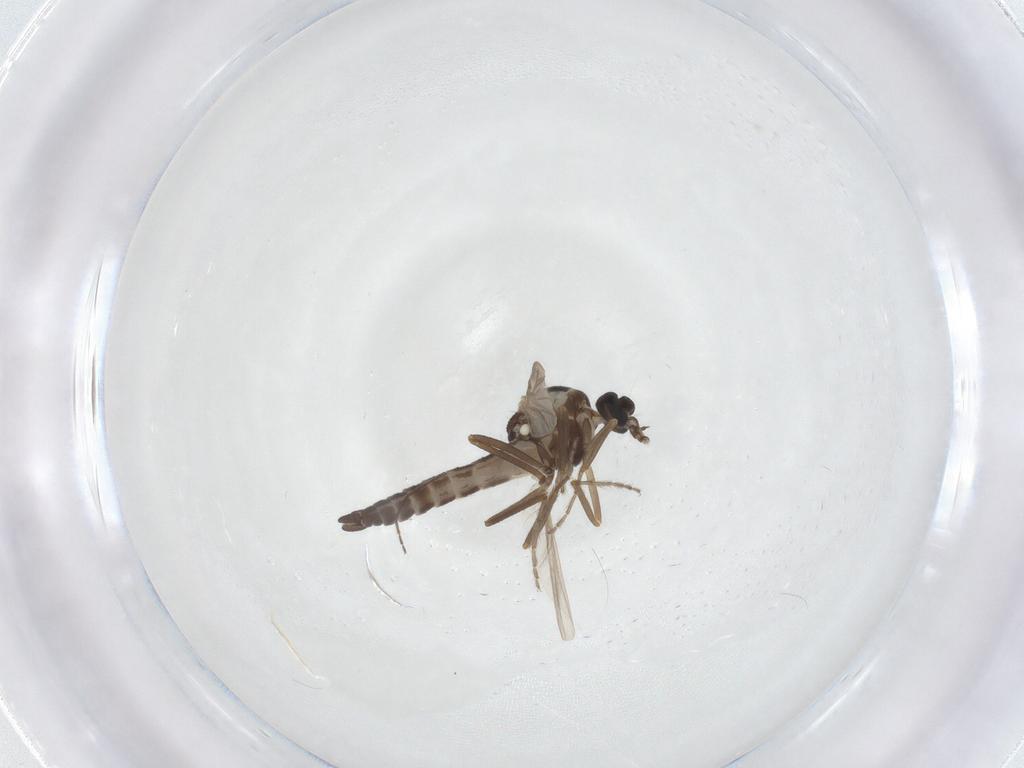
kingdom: Animalia
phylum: Arthropoda
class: Insecta
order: Diptera
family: Ceratopogonidae
